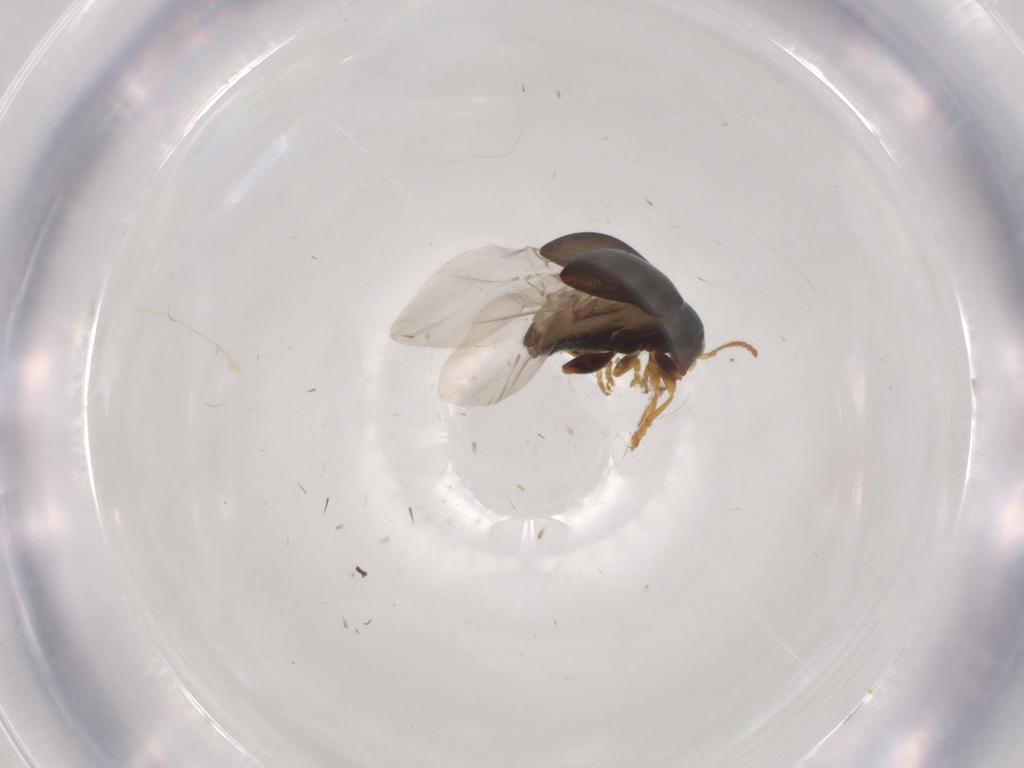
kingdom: Animalia
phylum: Arthropoda
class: Insecta
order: Coleoptera
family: Chrysomelidae
